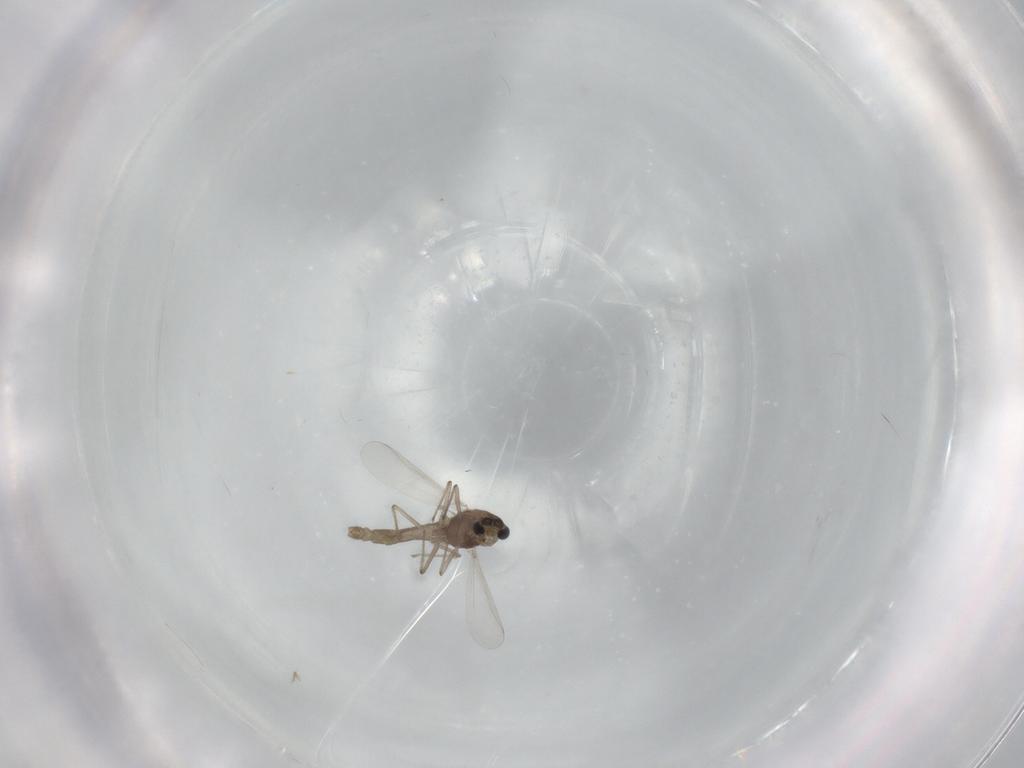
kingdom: Animalia
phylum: Arthropoda
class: Insecta
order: Diptera
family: Chironomidae
